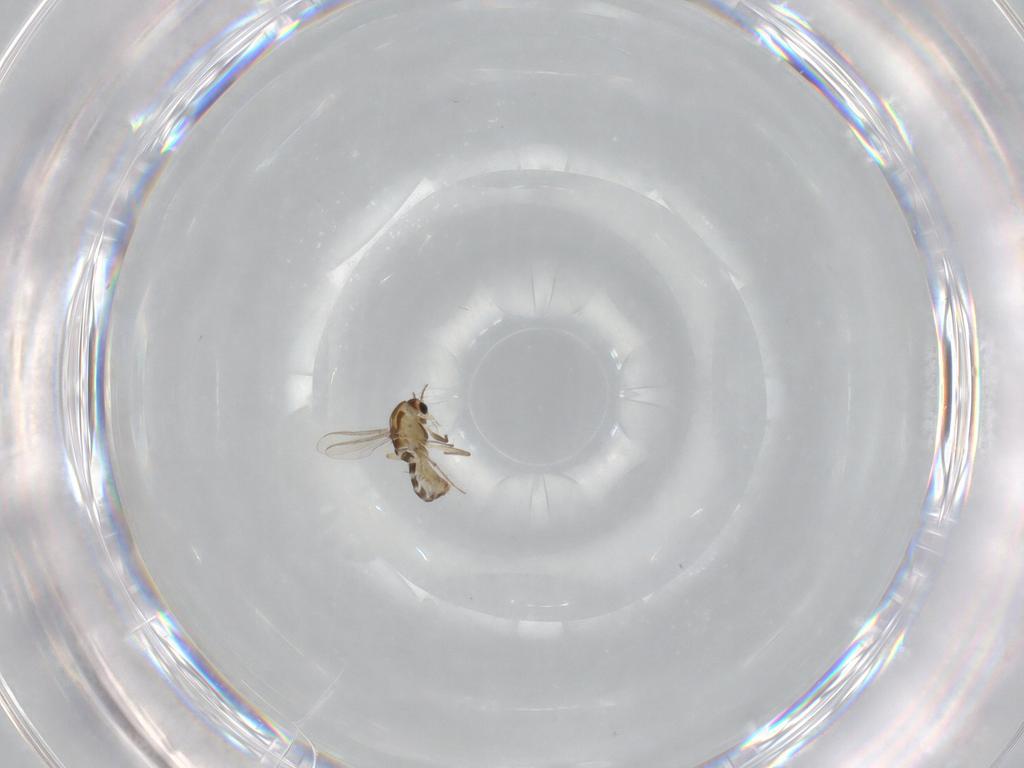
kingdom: Animalia
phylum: Arthropoda
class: Insecta
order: Diptera
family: Chironomidae
